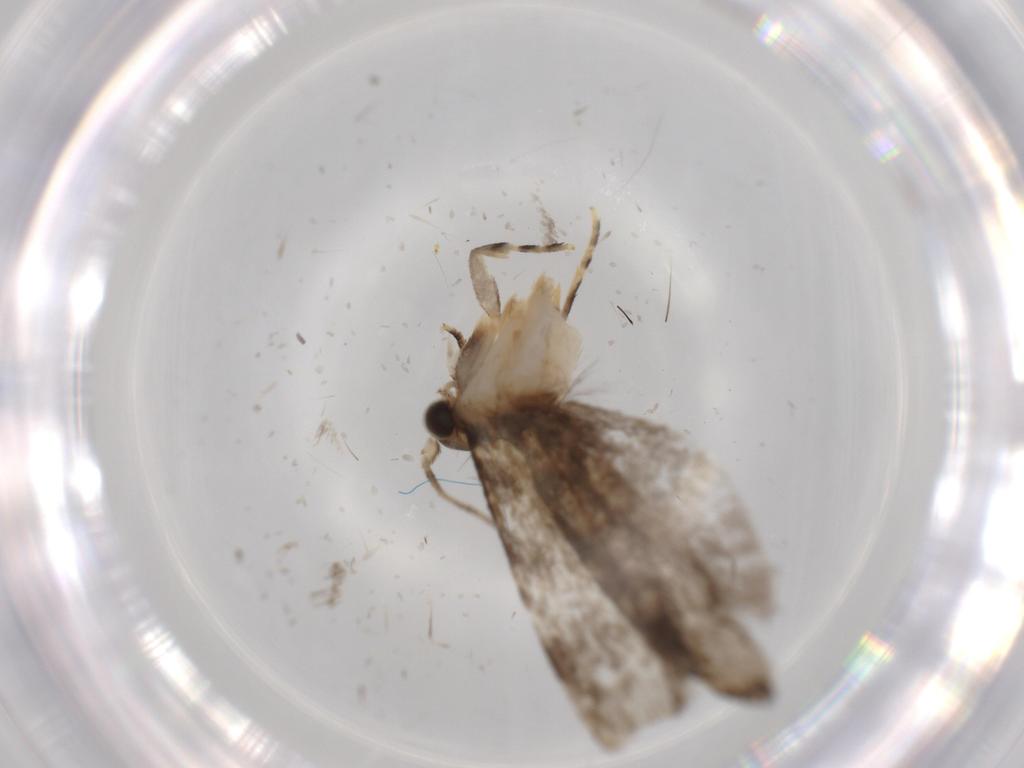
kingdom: Animalia
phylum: Arthropoda
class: Insecta
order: Lepidoptera
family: Tineidae
